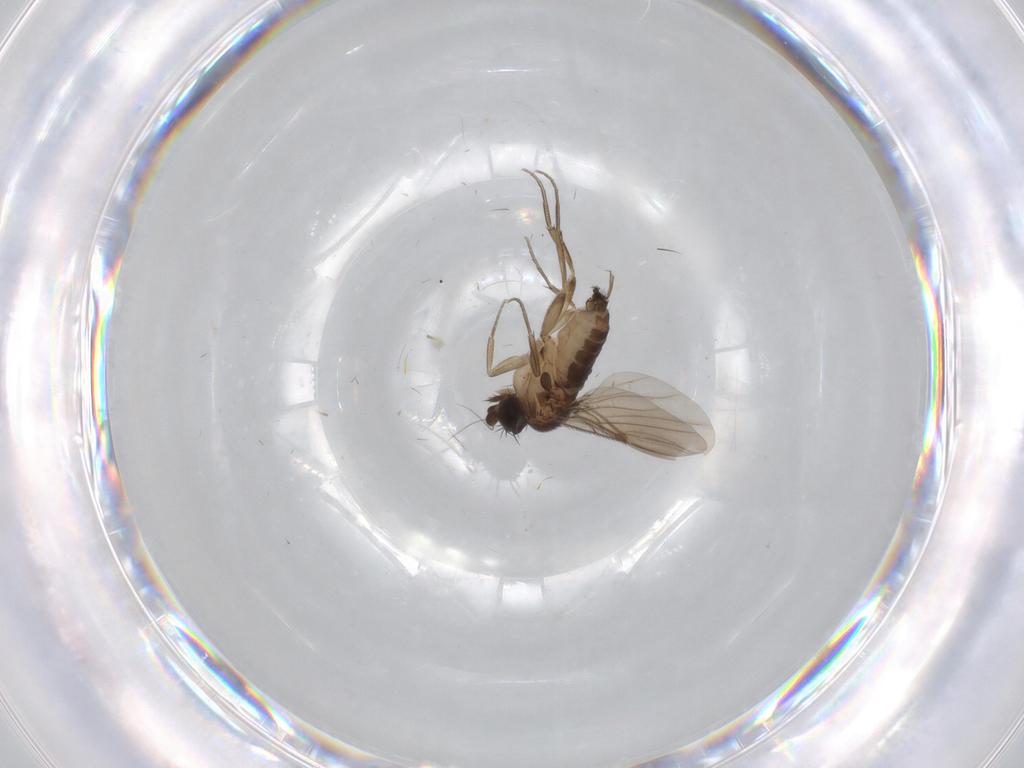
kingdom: Animalia
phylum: Arthropoda
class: Insecta
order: Diptera
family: Phoridae
